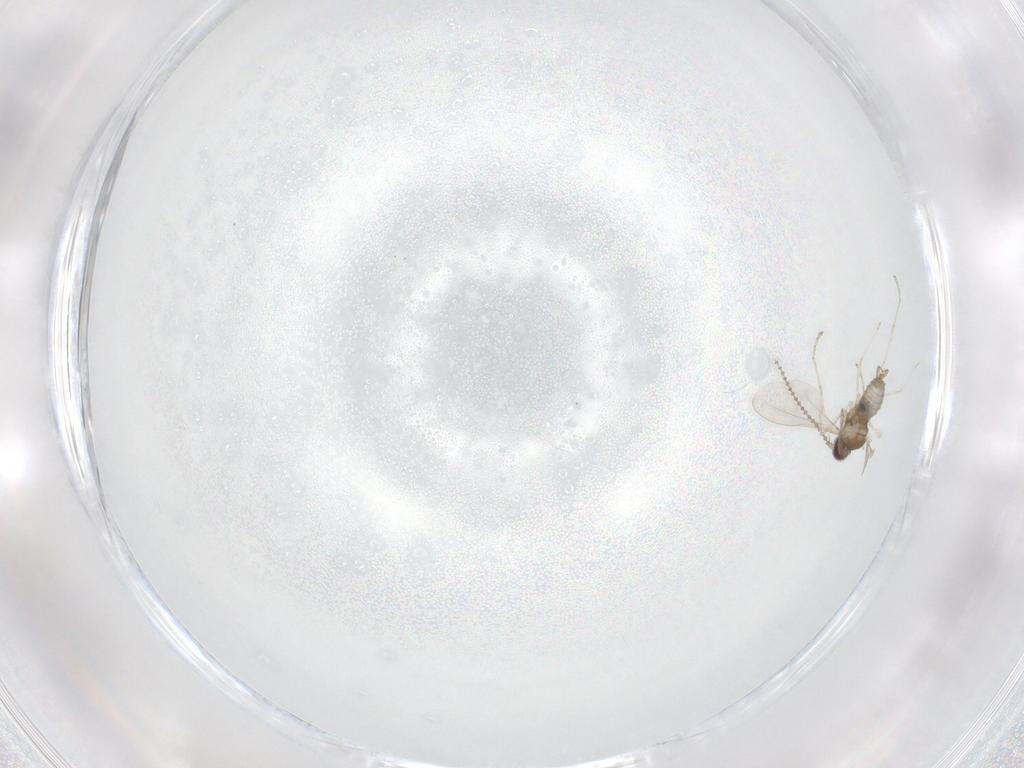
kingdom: Animalia
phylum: Arthropoda
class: Insecta
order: Diptera
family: Cecidomyiidae
